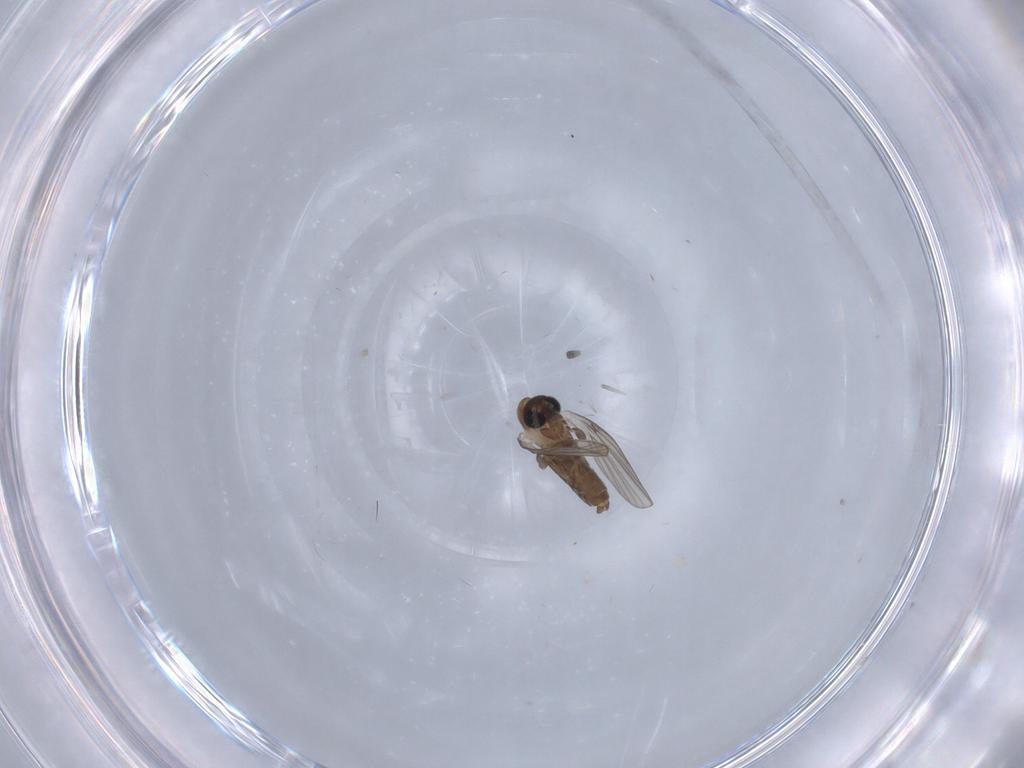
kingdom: Animalia
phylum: Arthropoda
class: Insecta
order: Diptera
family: Psychodidae
